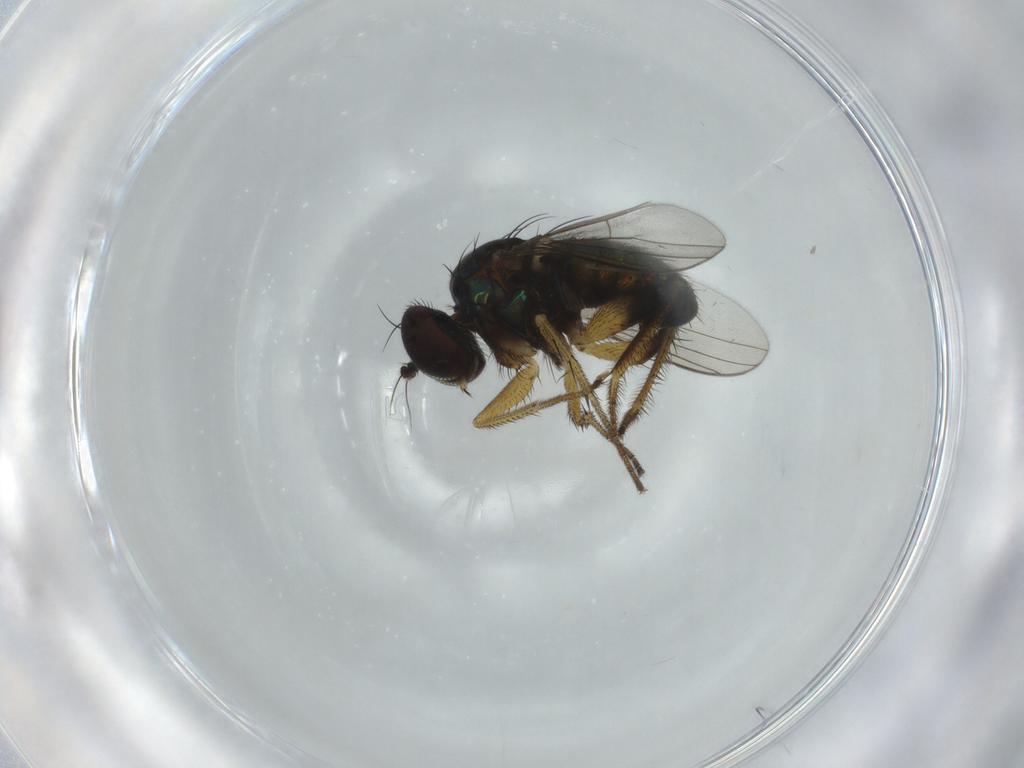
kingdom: Animalia
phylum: Arthropoda
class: Insecta
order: Diptera
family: Dolichopodidae
